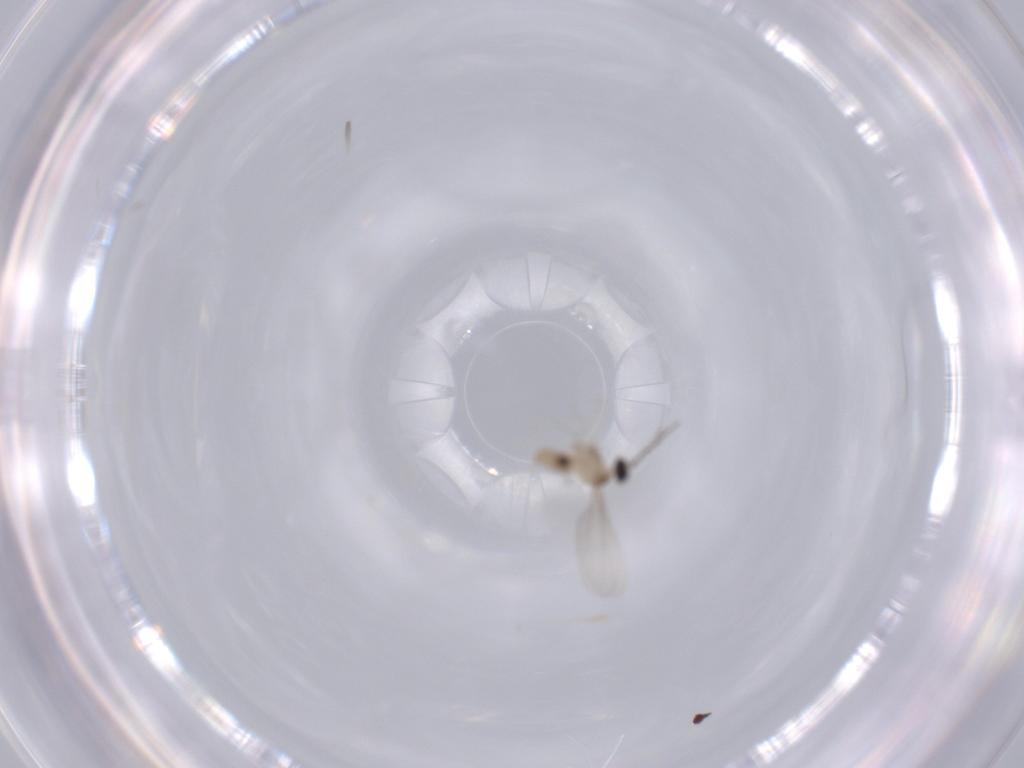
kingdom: Animalia
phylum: Arthropoda
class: Insecta
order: Diptera
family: Cecidomyiidae
